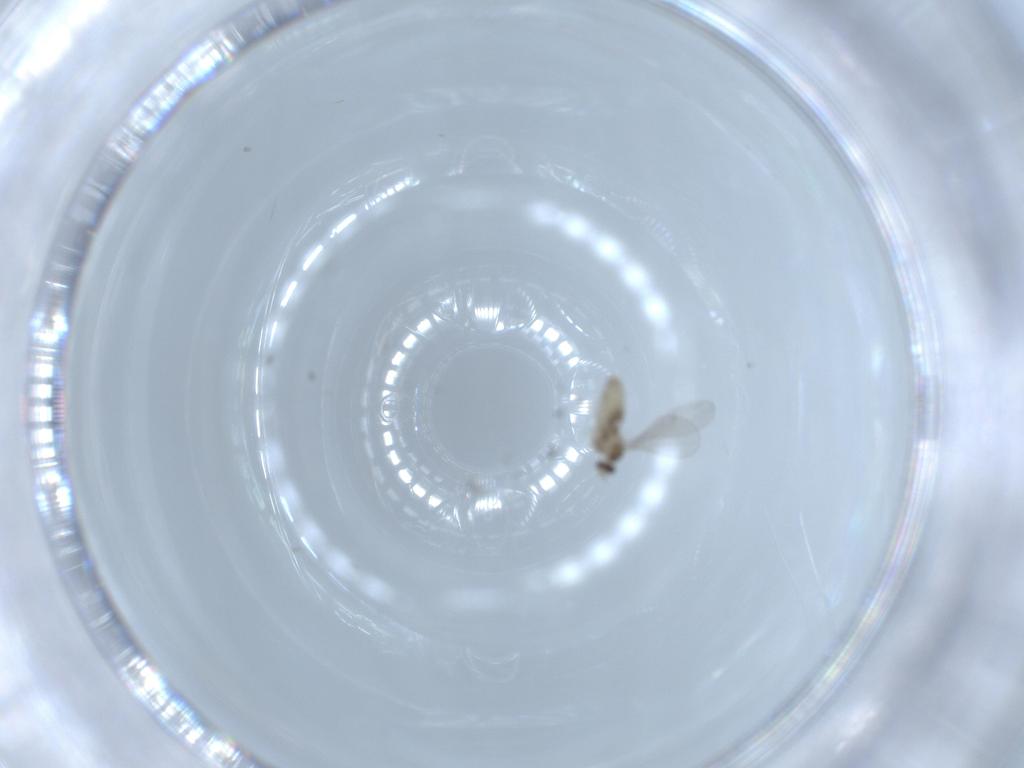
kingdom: Animalia
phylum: Arthropoda
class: Insecta
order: Diptera
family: Cecidomyiidae
